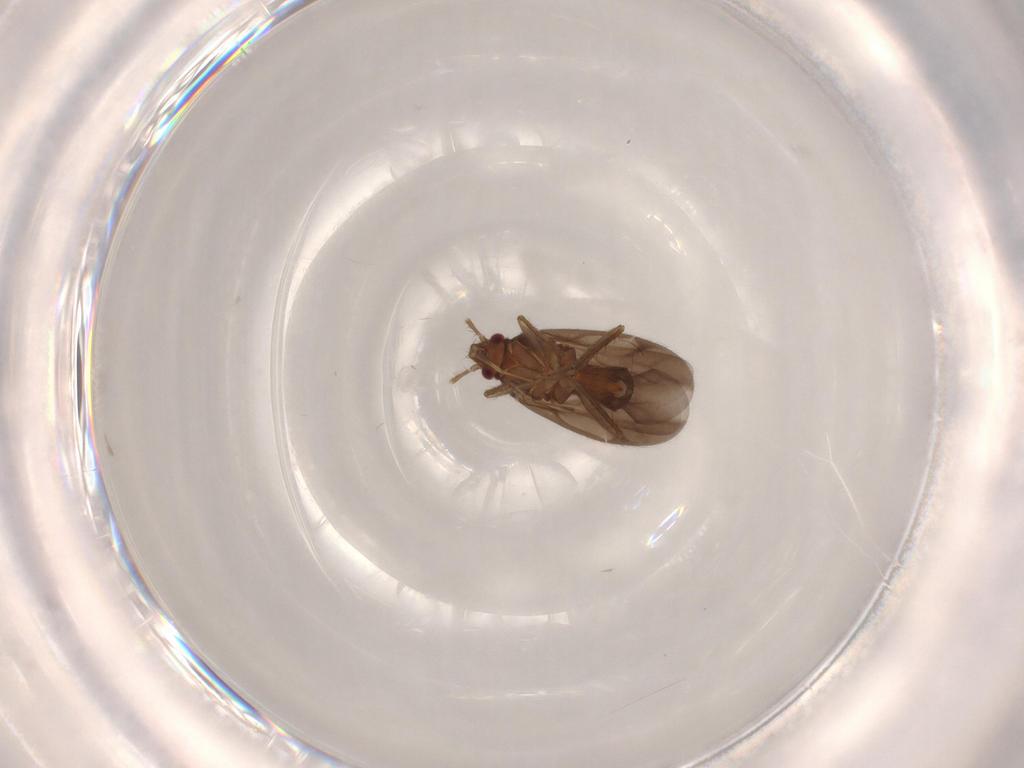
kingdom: Animalia
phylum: Arthropoda
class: Insecta
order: Hemiptera
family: Ceratocombidae
